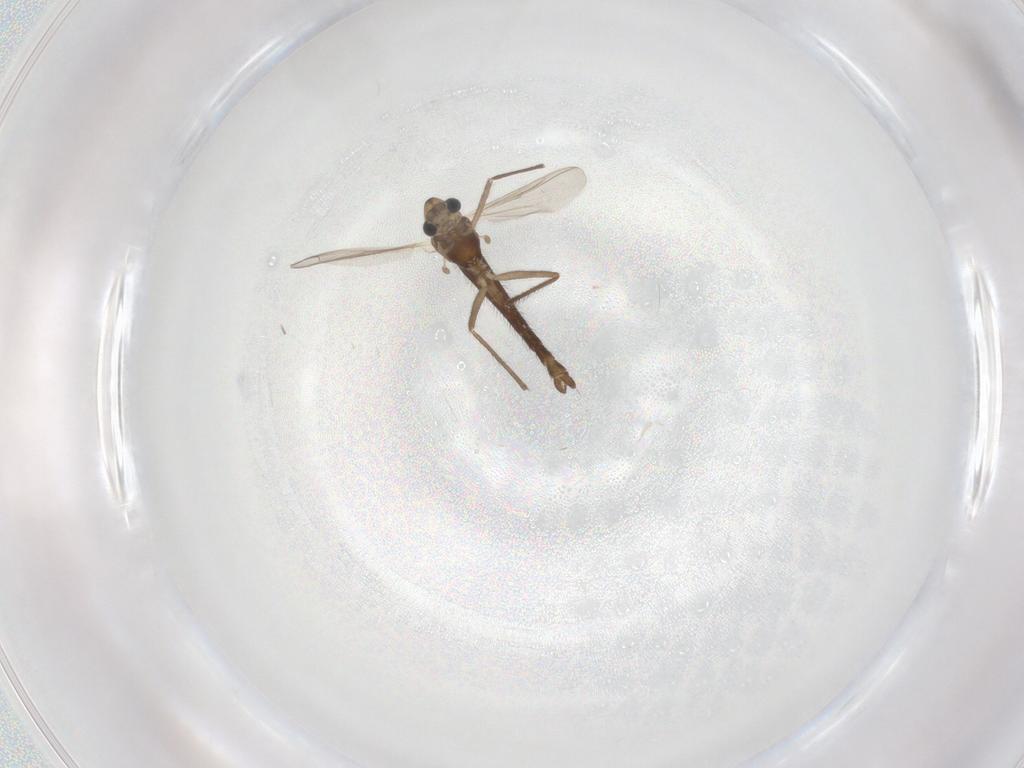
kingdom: Animalia
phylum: Arthropoda
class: Insecta
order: Diptera
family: Chironomidae
